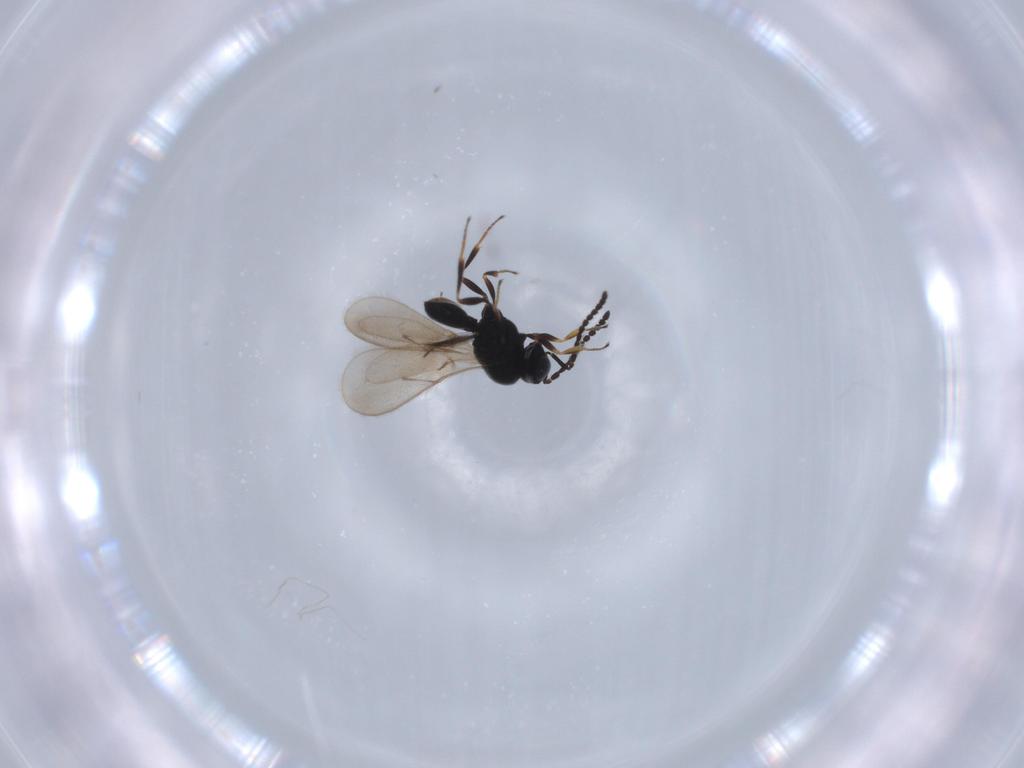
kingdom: Animalia
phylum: Arthropoda
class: Insecta
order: Hymenoptera
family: Scelionidae
